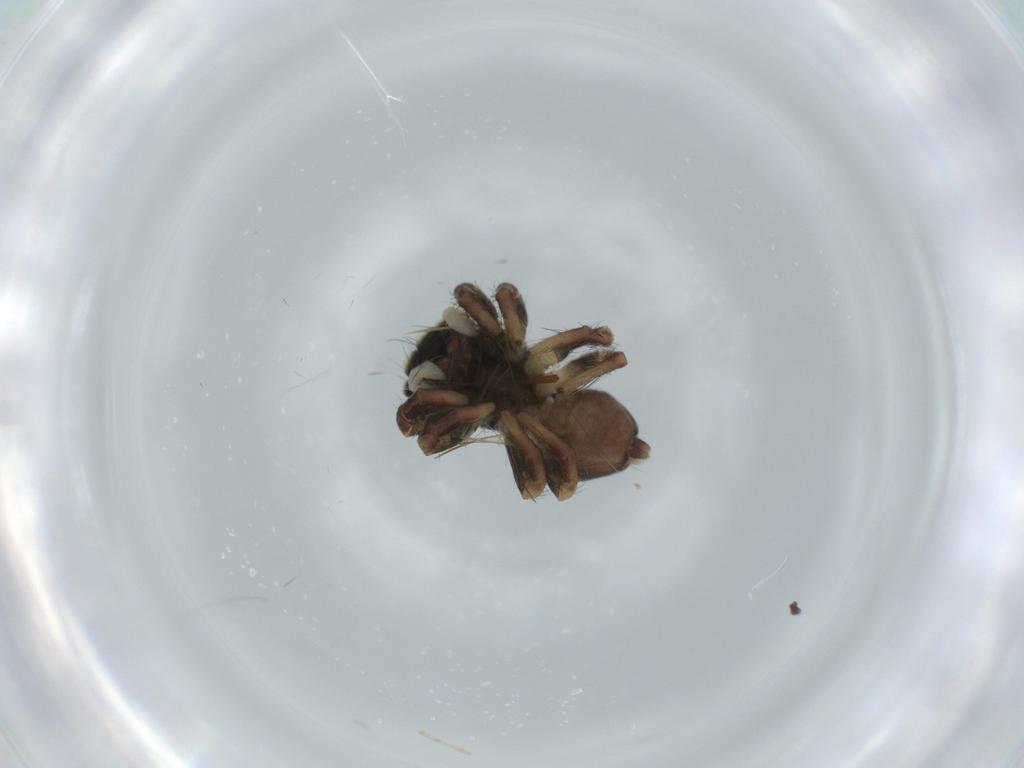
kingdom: Animalia
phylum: Arthropoda
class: Arachnida
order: Araneae
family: Salticidae
